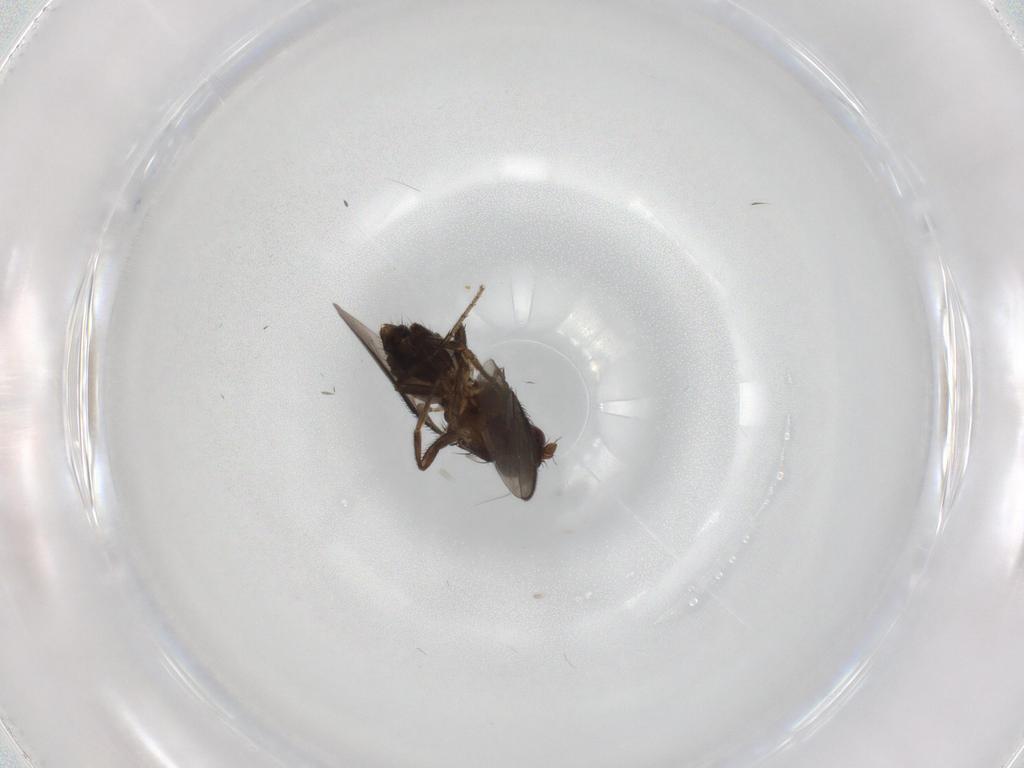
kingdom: Animalia
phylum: Arthropoda
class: Insecta
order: Diptera
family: Sphaeroceridae
